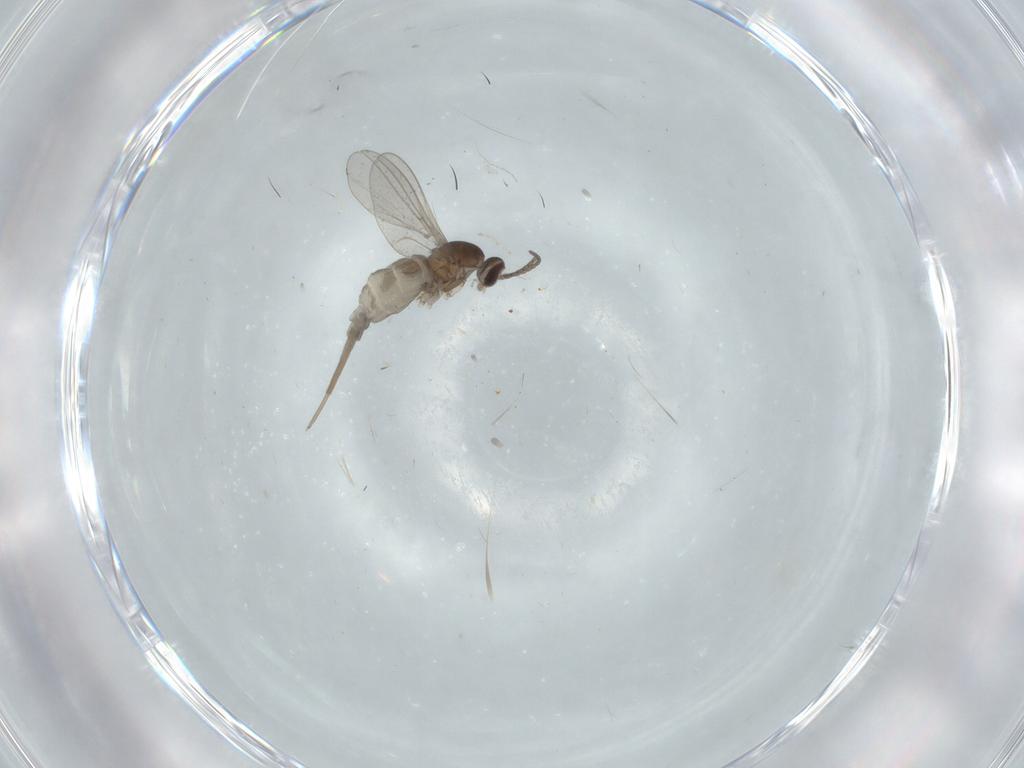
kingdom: Animalia
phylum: Arthropoda
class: Insecta
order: Diptera
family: Cecidomyiidae
